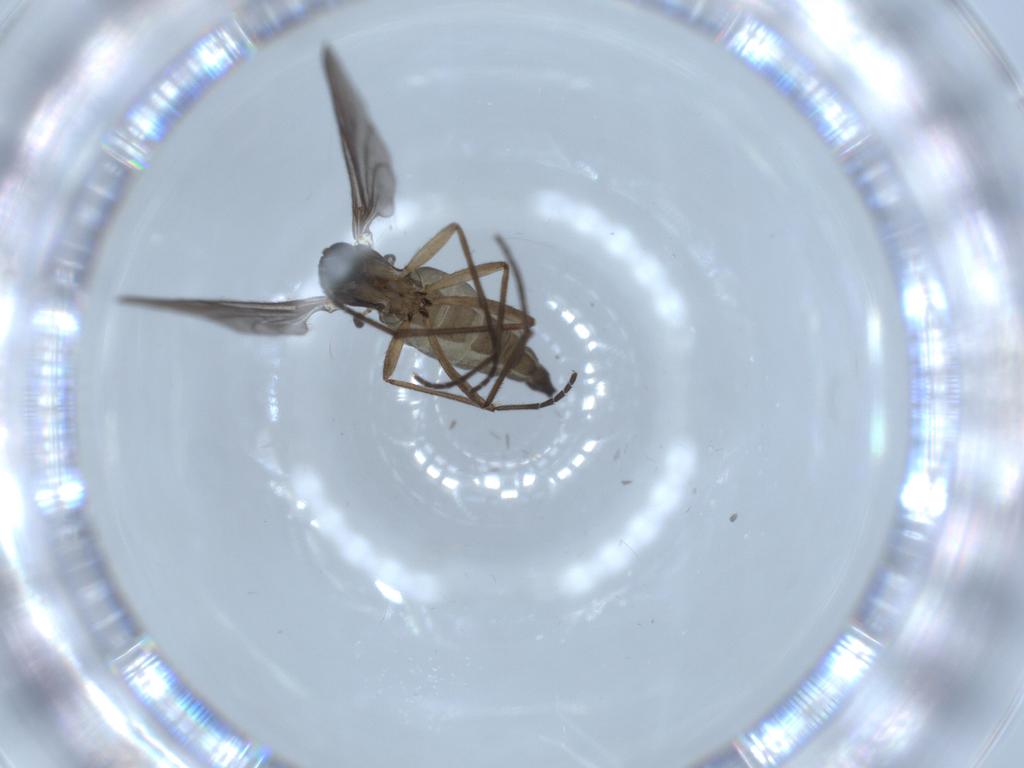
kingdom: Animalia
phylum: Arthropoda
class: Insecta
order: Diptera
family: Sciaridae
